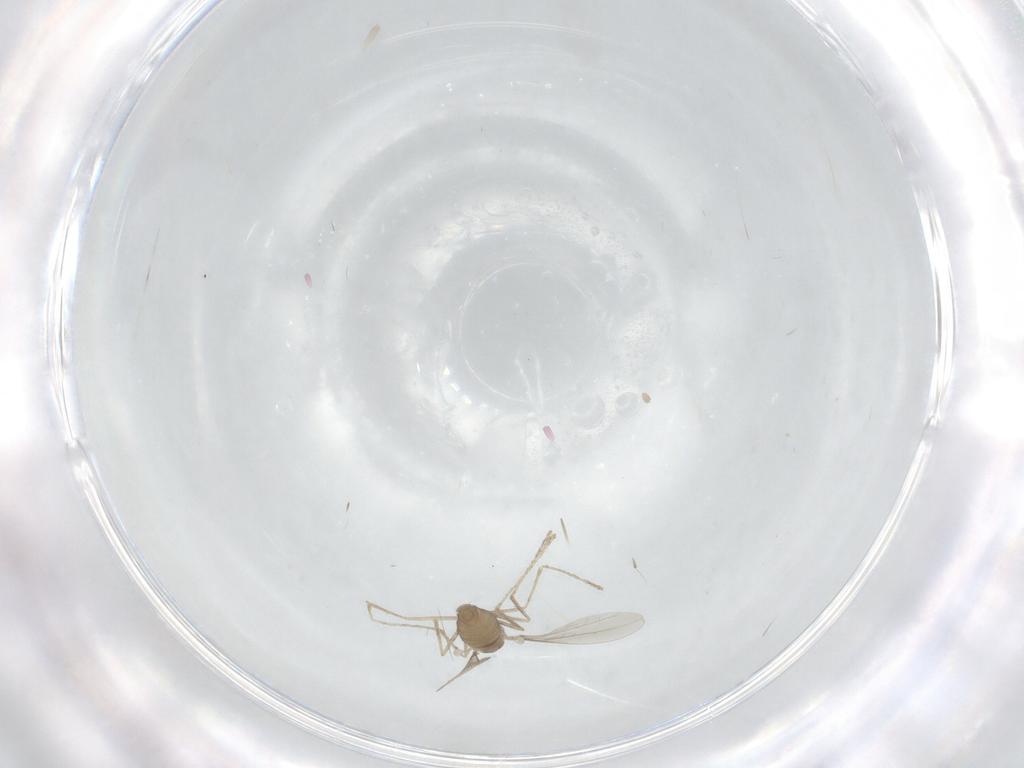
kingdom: Animalia
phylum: Arthropoda
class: Insecta
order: Diptera
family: Cecidomyiidae
